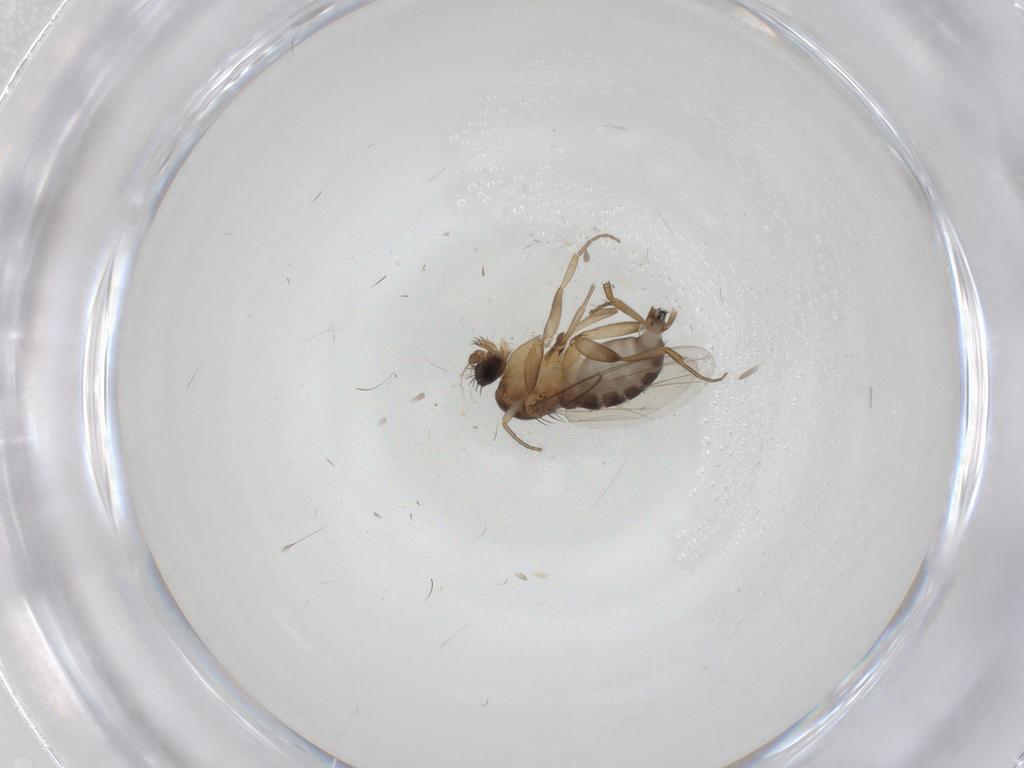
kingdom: Animalia
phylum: Arthropoda
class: Insecta
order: Diptera
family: Phoridae
